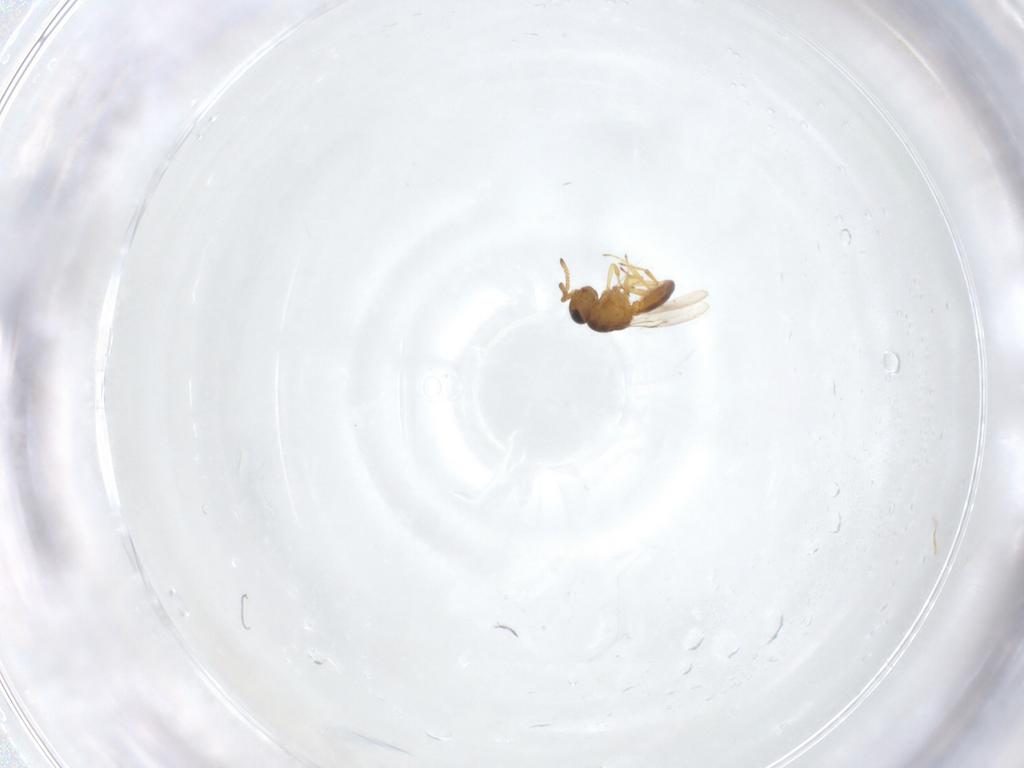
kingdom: Animalia
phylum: Arthropoda
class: Insecta
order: Hymenoptera
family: Scelionidae
